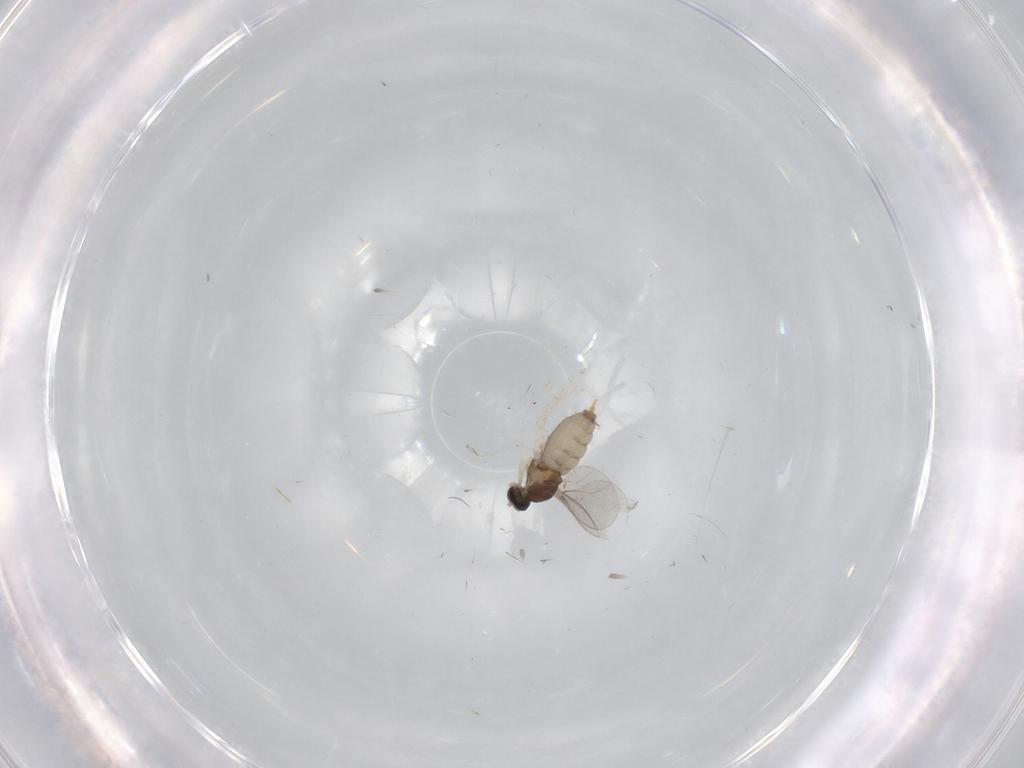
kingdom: Animalia
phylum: Arthropoda
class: Insecta
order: Diptera
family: Cecidomyiidae
